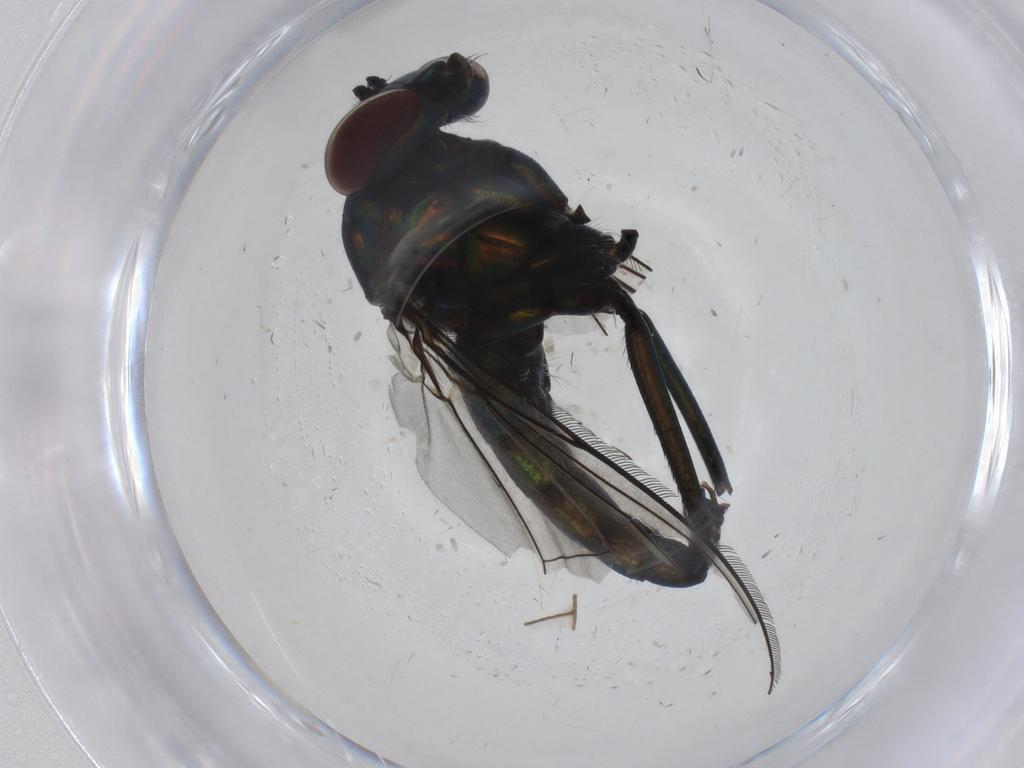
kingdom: Animalia
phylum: Arthropoda
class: Insecta
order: Diptera
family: Dolichopodidae
